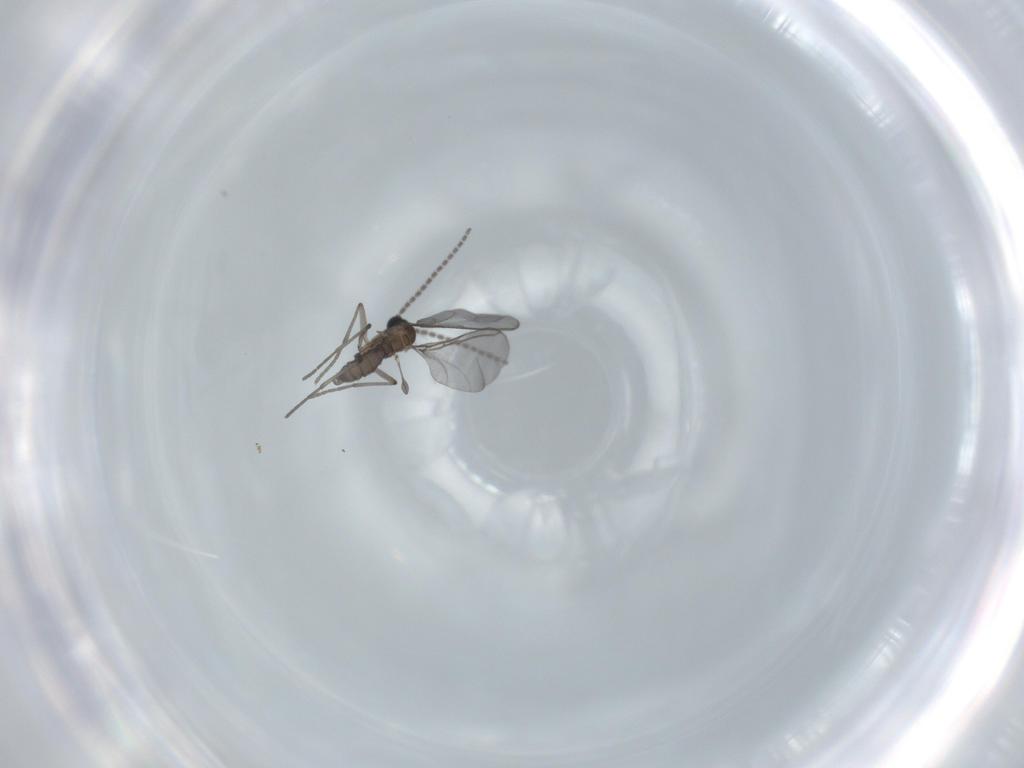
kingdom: Animalia
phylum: Arthropoda
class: Insecta
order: Diptera
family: Sciaridae
